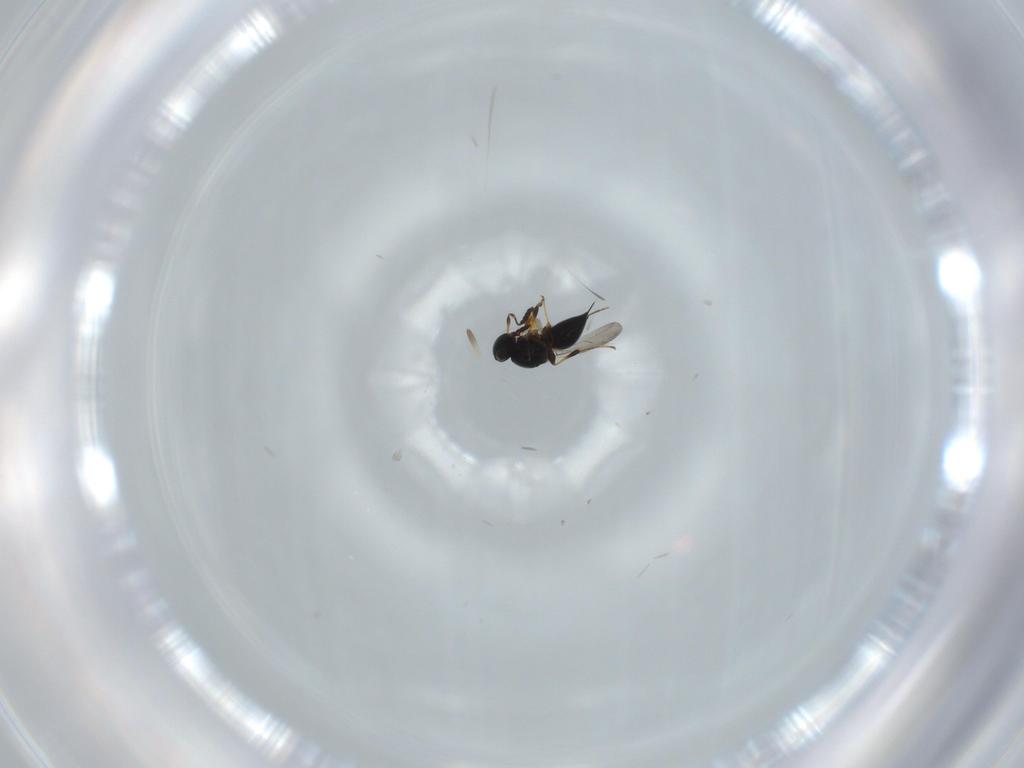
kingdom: Animalia
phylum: Arthropoda
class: Insecta
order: Hymenoptera
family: Platygastridae
